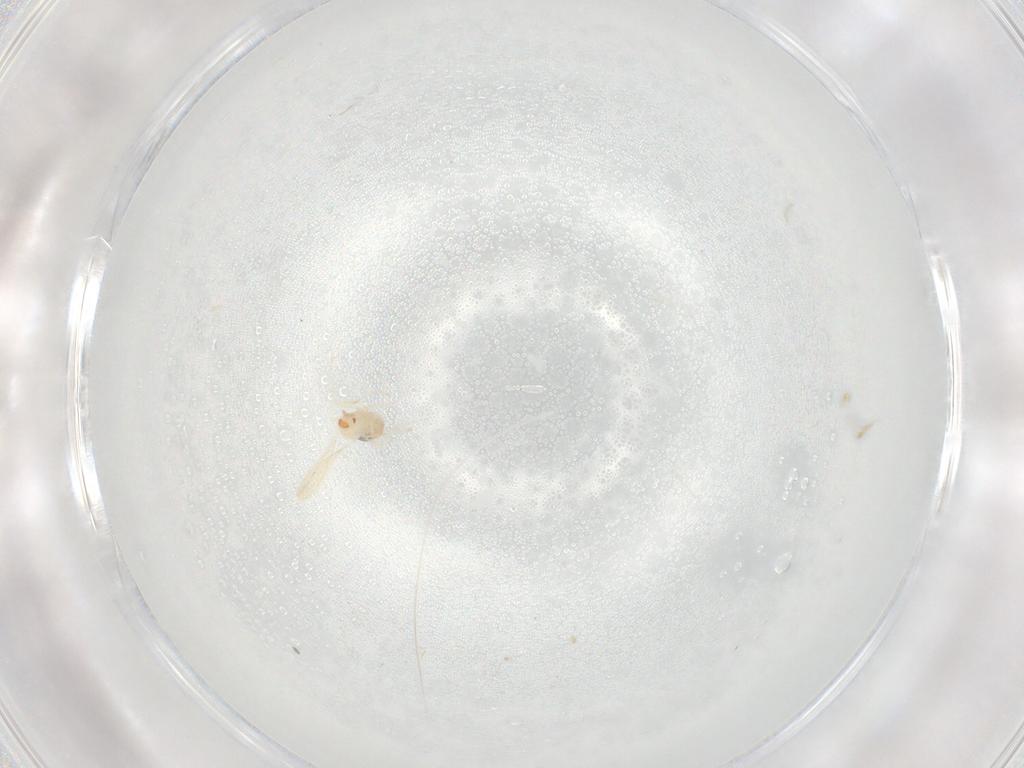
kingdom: Animalia
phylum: Arthropoda
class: Insecta
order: Diptera
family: Cecidomyiidae
